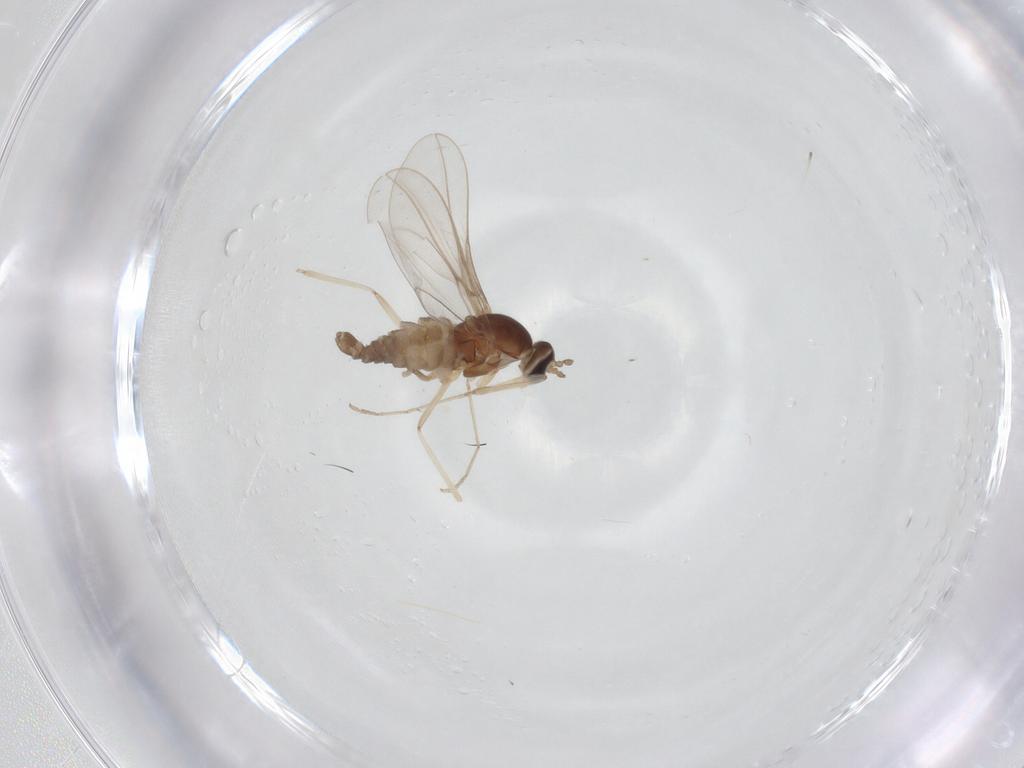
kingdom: Animalia
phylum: Arthropoda
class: Insecta
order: Diptera
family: Cecidomyiidae
